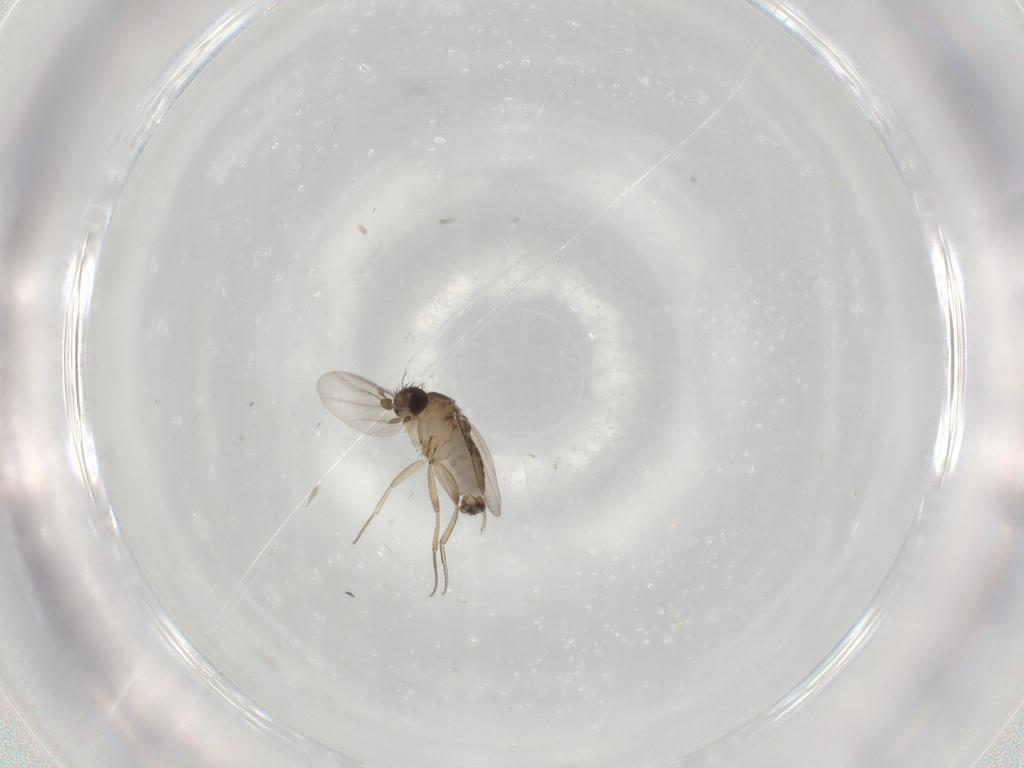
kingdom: Animalia
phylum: Arthropoda
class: Insecta
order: Diptera
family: Phoridae
